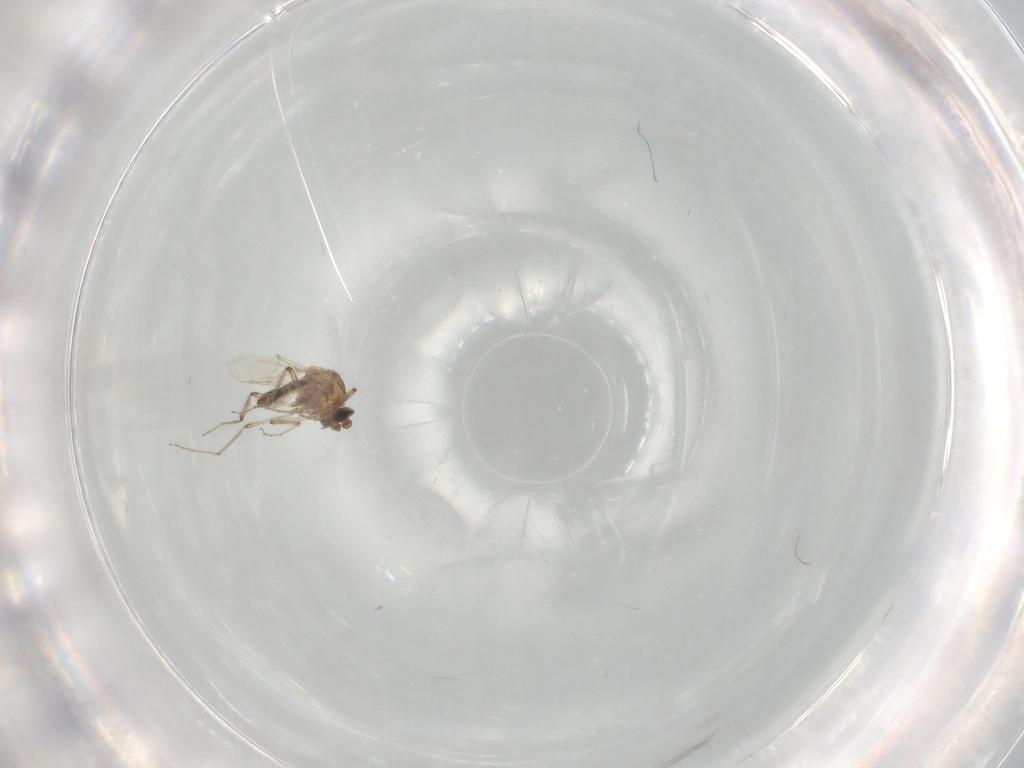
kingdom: Animalia
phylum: Arthropoda
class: Insecta
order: Diptera
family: Ceratopogonidae
